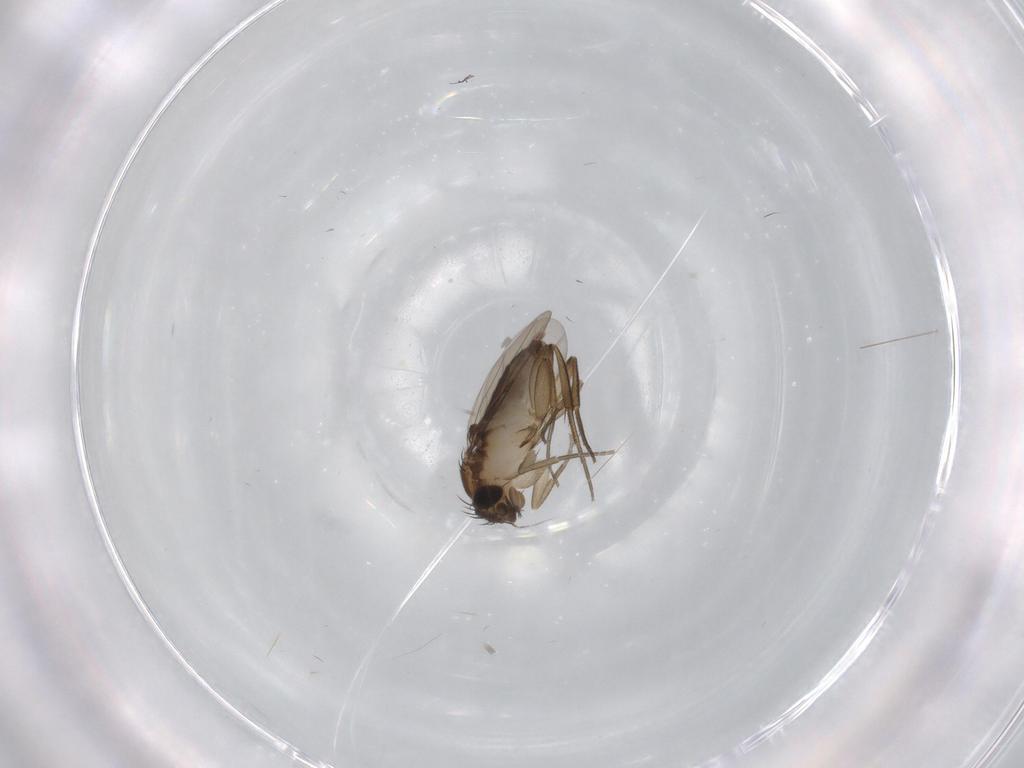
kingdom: Animalia
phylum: Arthropoda
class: Insecta
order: Diptera
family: Phoridae
